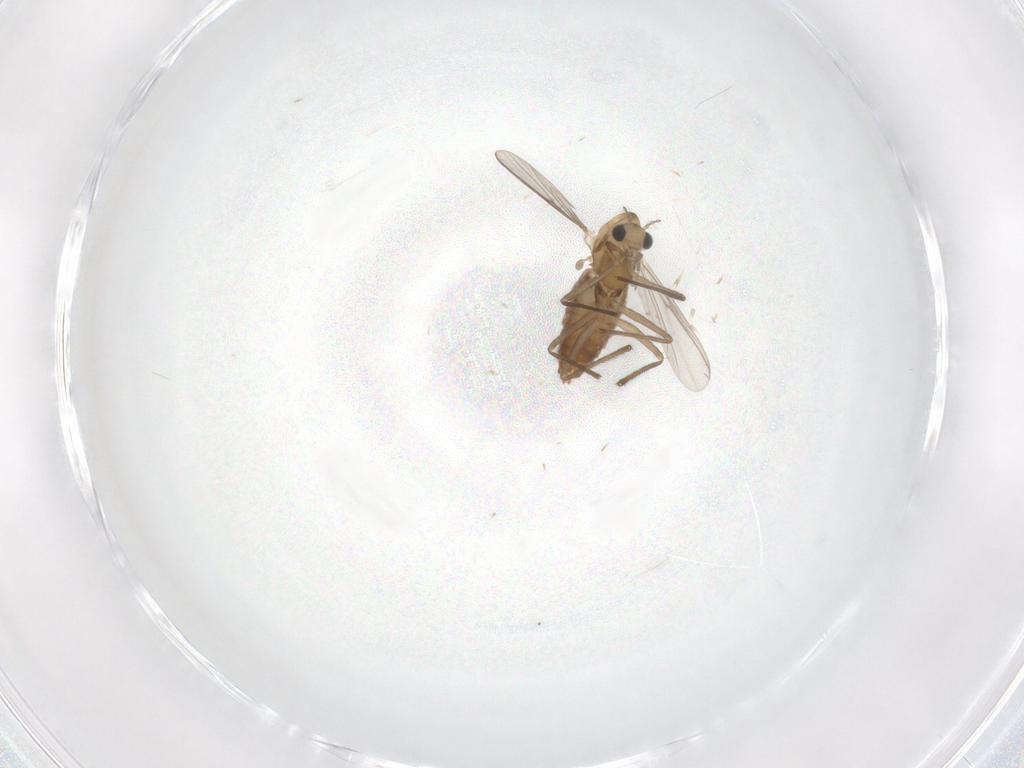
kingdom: Animalia
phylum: Arthropoda
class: Insecta
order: Diptera
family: Chironomidae
